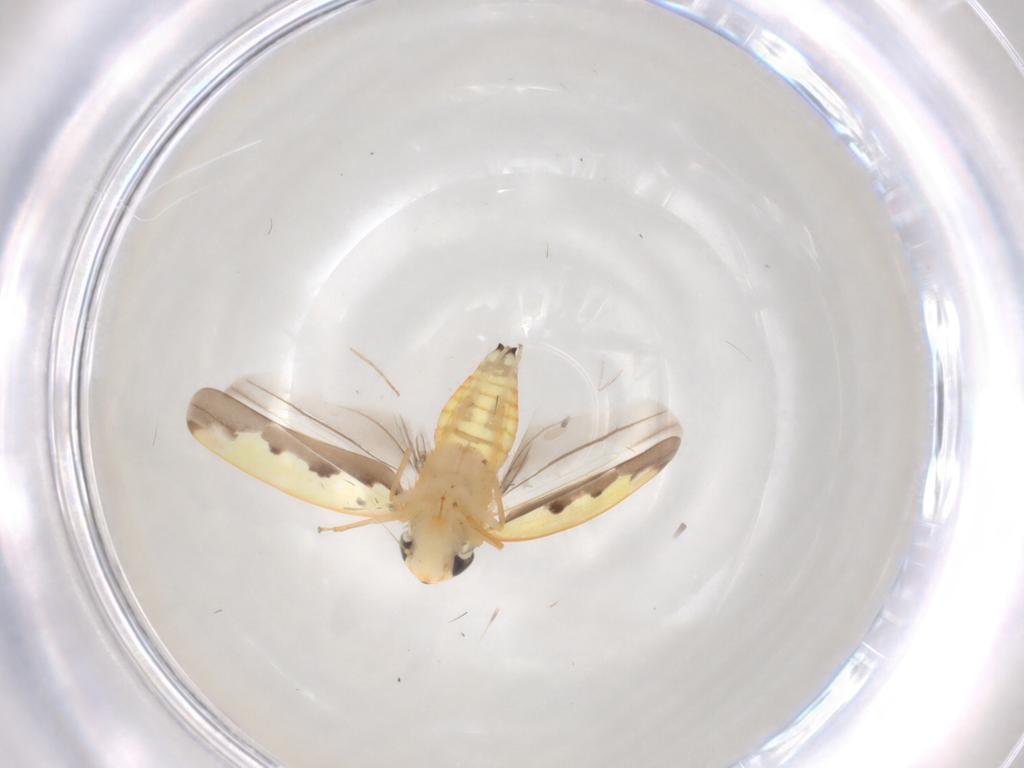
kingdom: Animalia
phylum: Arthropoda
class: Insecta
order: Hemiptera
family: Cicadellidae
